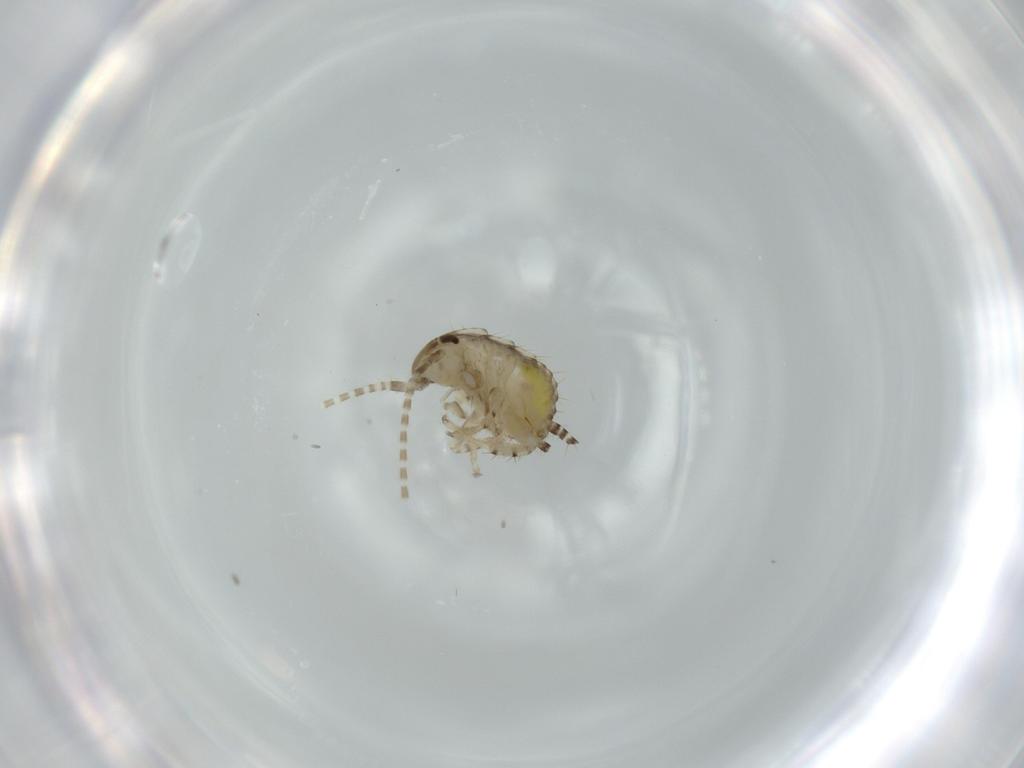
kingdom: Animalia
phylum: Arthropoda
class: Insecta
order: Blattodea
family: Ectobiidae
